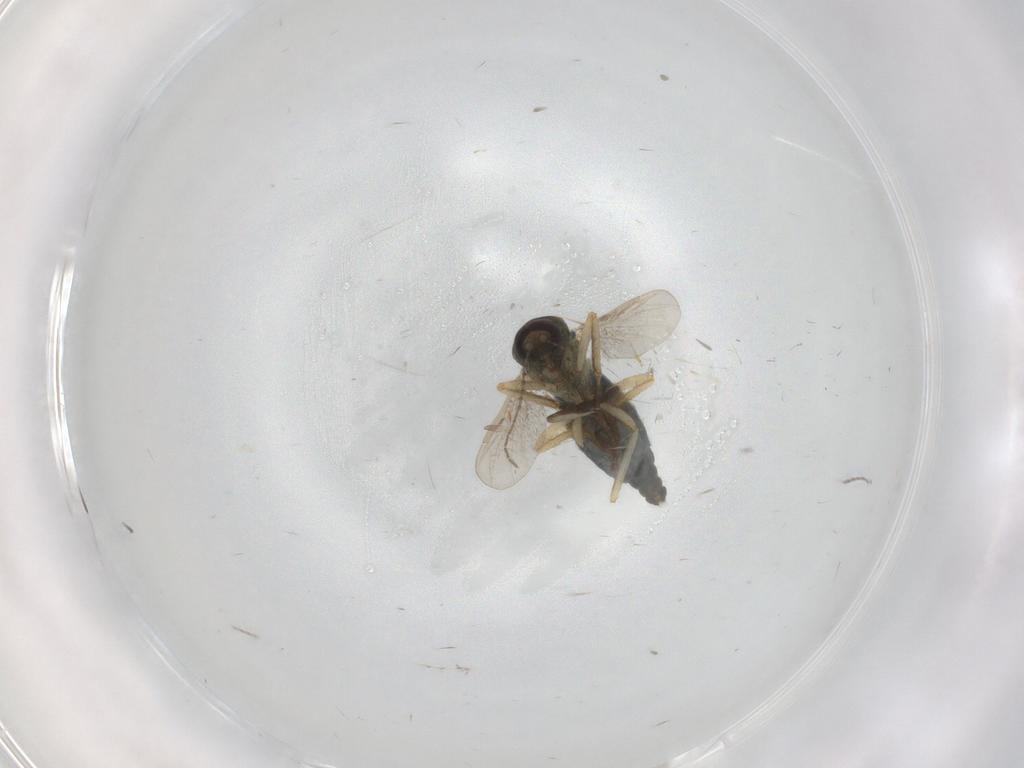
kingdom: Animalia
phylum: Arthropoda
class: Insecta
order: Diptera
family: Ceratopogonidae
